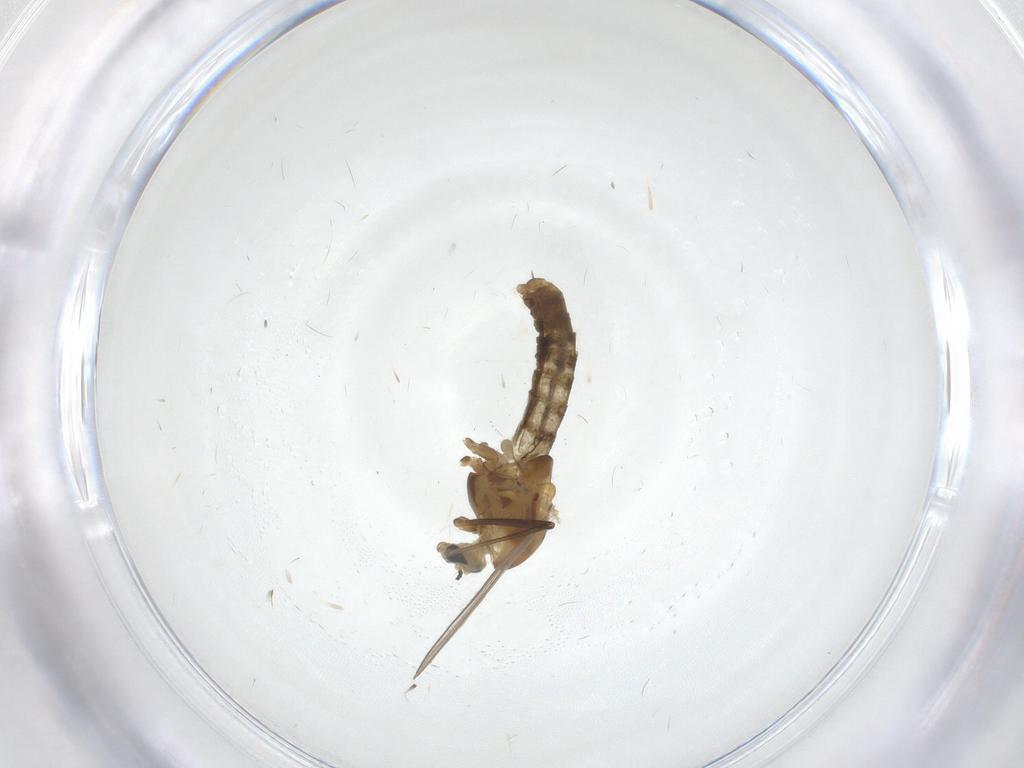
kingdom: Animalia
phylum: Arthropoda
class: Insecta
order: Diptera
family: Chironomidae
